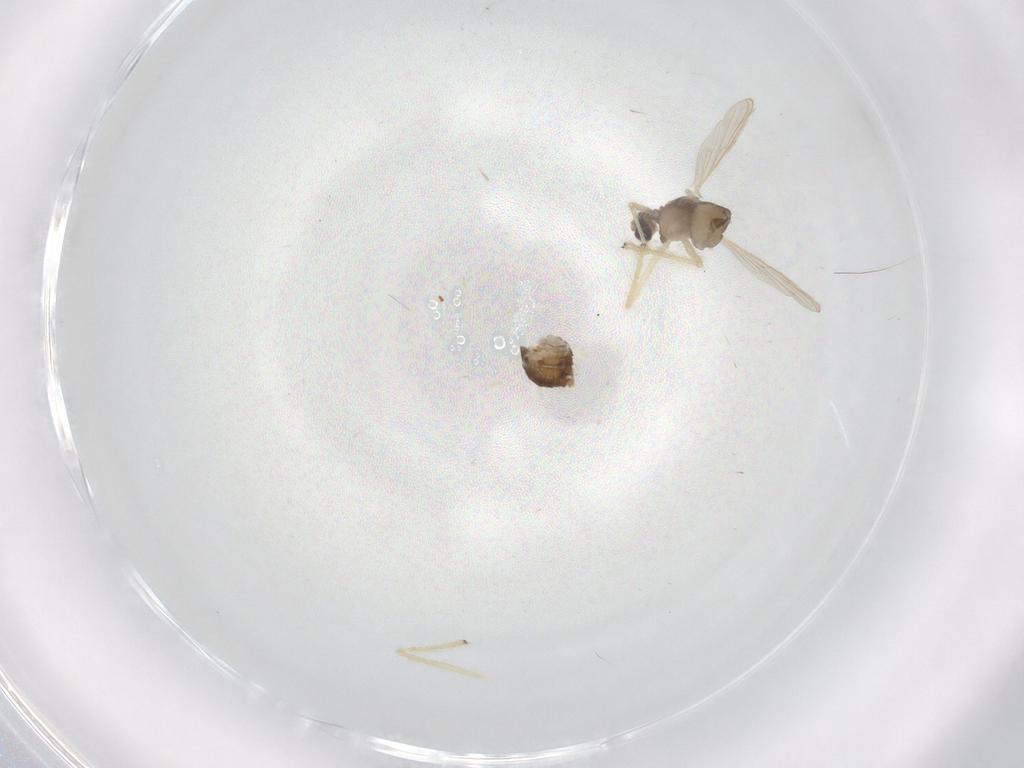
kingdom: Animalia
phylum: Arthropoda
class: Insecta
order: Diptera
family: Chironomidae
